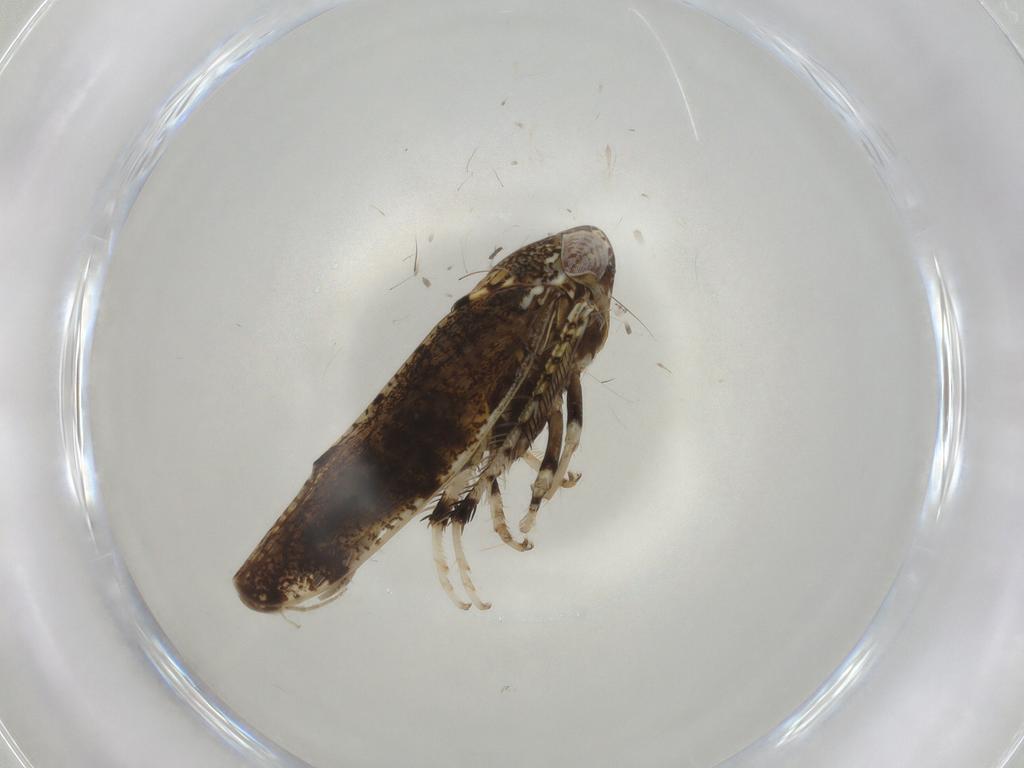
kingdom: Animalia
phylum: Arthropoda
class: Insecta
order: Hemiptera
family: Cicadellidae
